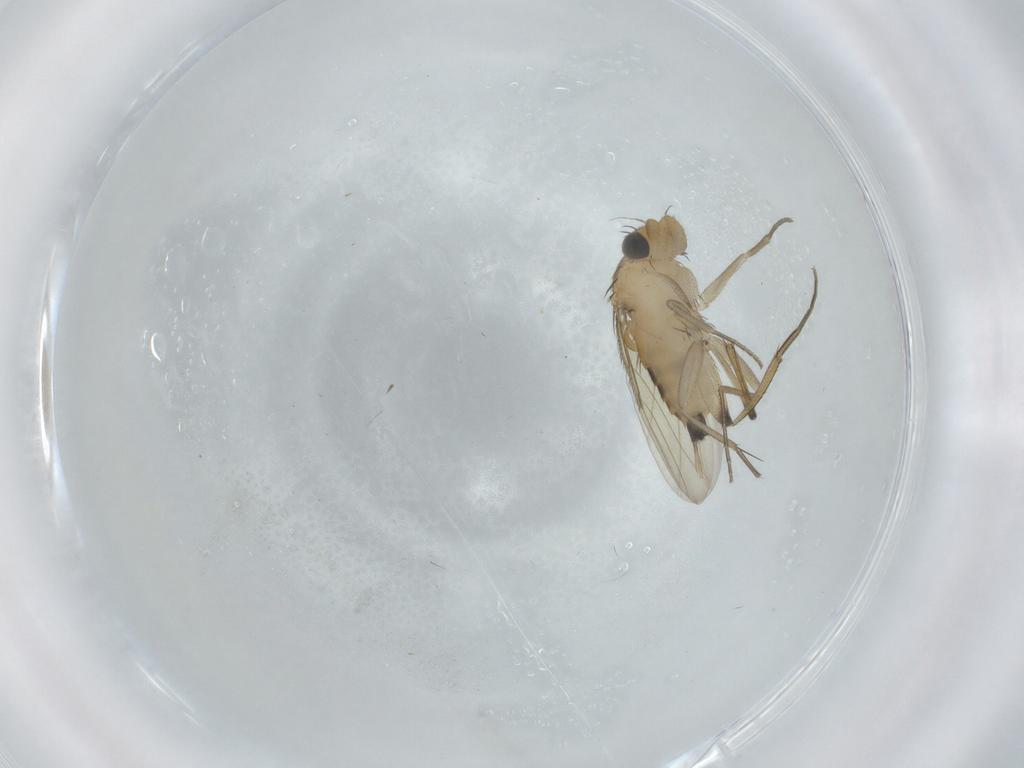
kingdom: Animalia
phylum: Arthropoda
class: Insecta
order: Diptera
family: Phoridae
